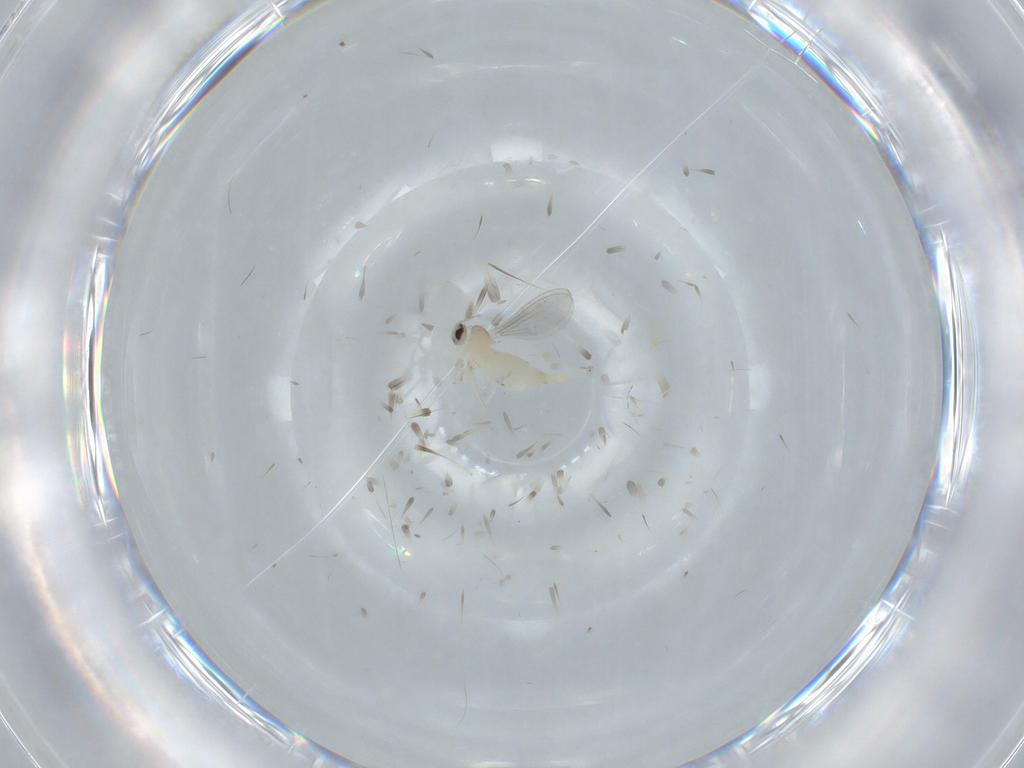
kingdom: Animalia
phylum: Arthropoda
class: Insecta
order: Diptera
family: Cecidomyiidae
